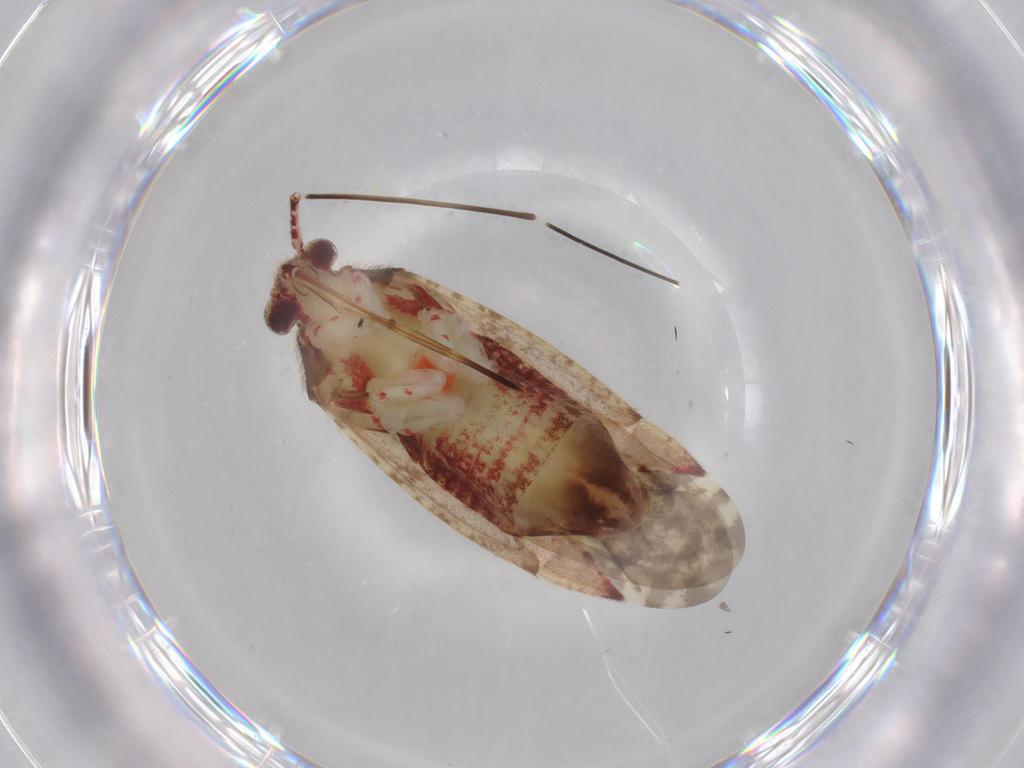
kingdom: Animalia
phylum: Arthropoda
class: Insecta
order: Hemiptera
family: Miridae
